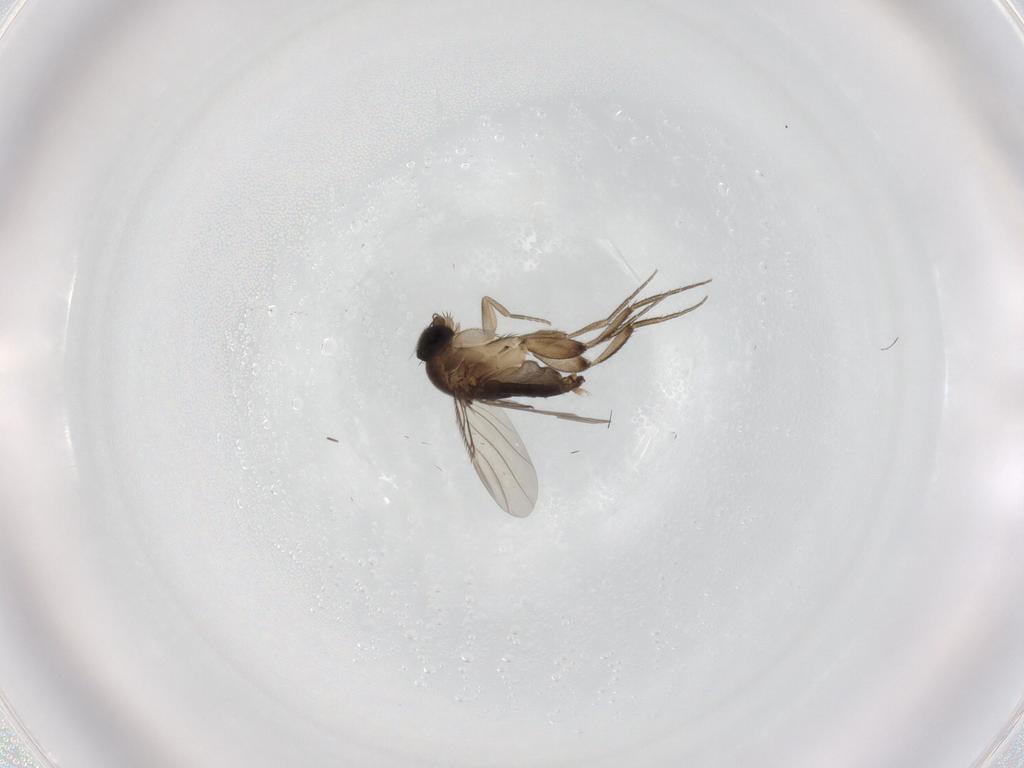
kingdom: Animalia
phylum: Arthropoda
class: Insecta
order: Diptera
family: Phoridae
